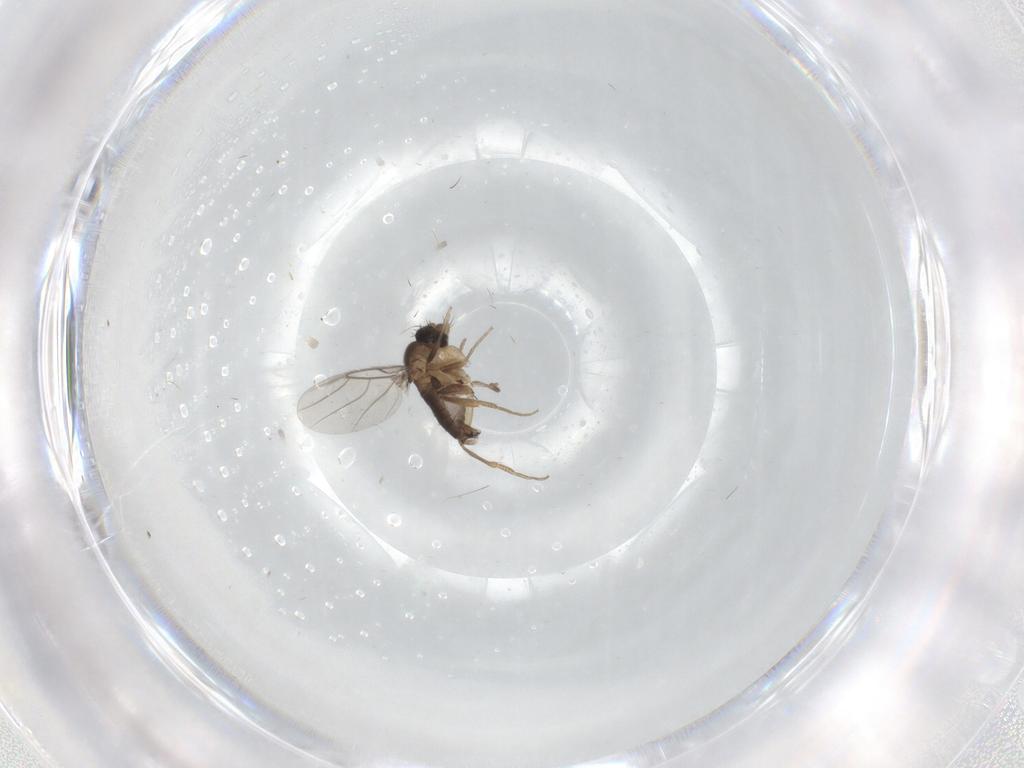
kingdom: Animalia
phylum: Arthropoda
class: Insecta
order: Diptera
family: Phoridae
